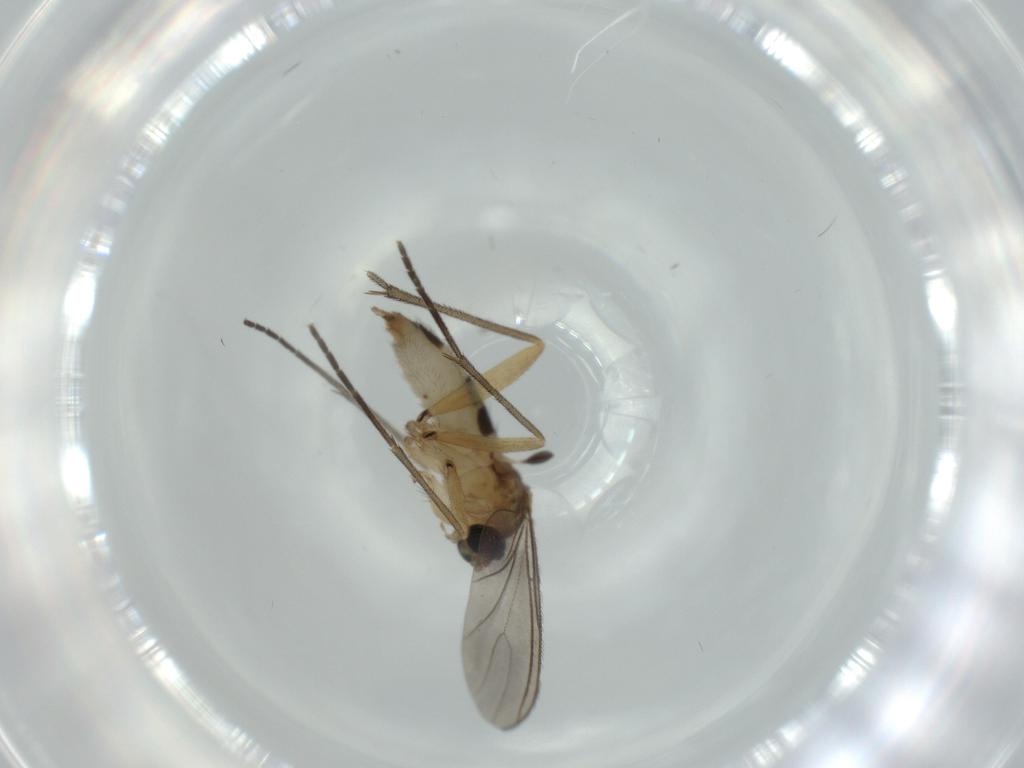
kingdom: Animalia
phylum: Arthropoda
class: Insecta
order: Diptera
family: Sciaridae
